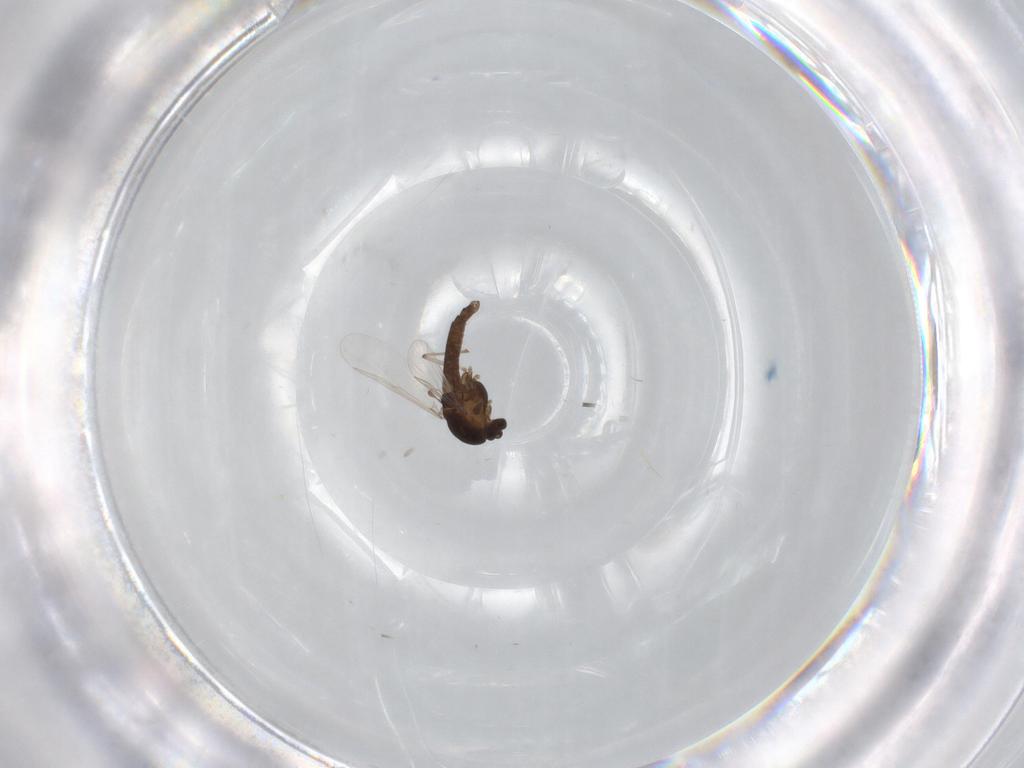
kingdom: Animalia
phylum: Arthropoda
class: Insecta
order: Diptera
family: Chironomidae
